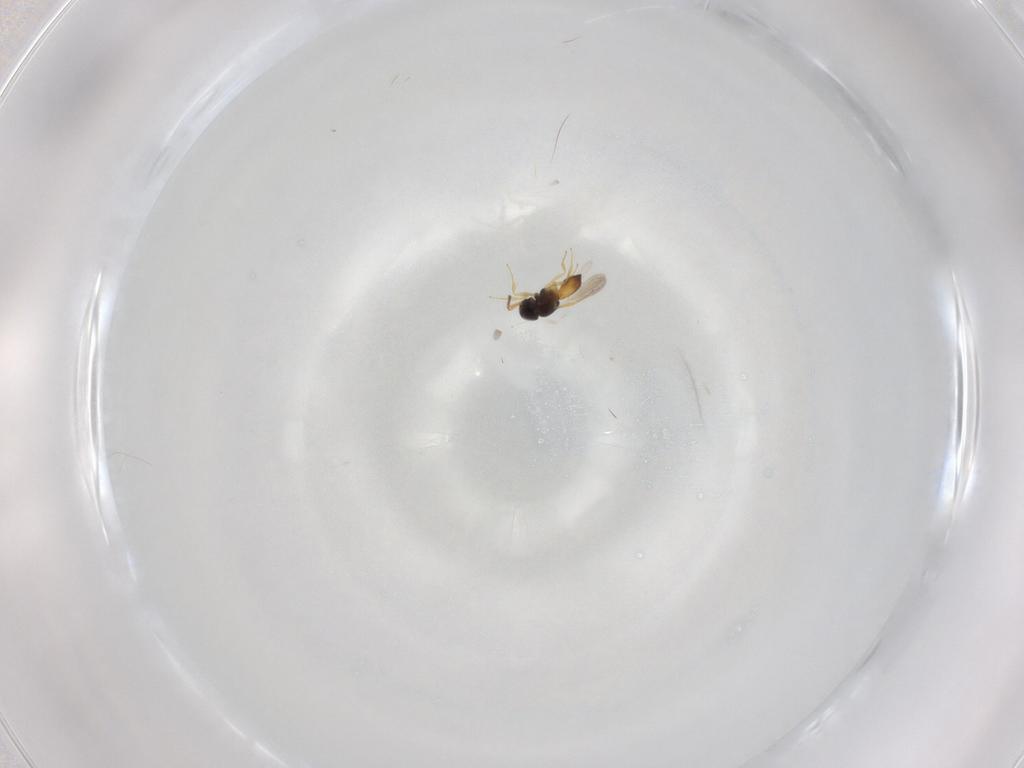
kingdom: Animalia
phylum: Arthropoda
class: Insecta
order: Hymenoptera
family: Scelionidae
